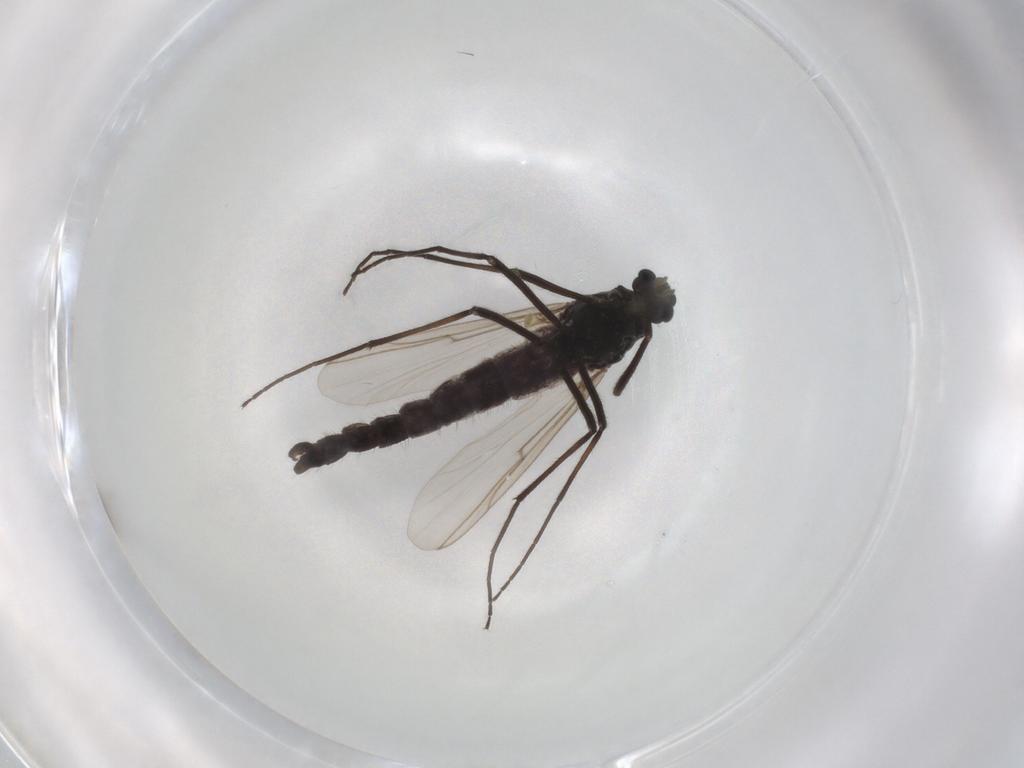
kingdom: Animalia
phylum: Arthropoda
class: Insecta
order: Diptera
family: Chironomidae
